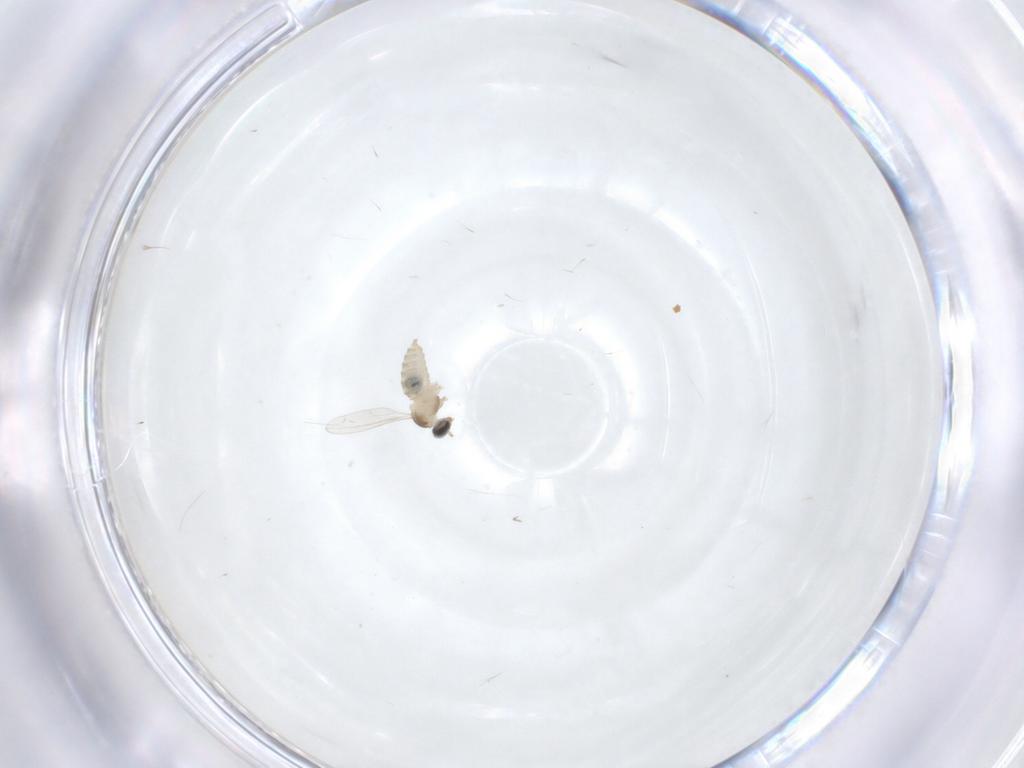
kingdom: Animalia
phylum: Arthropoda
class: Insecta
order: Diptera
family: Cecidomyiidae
